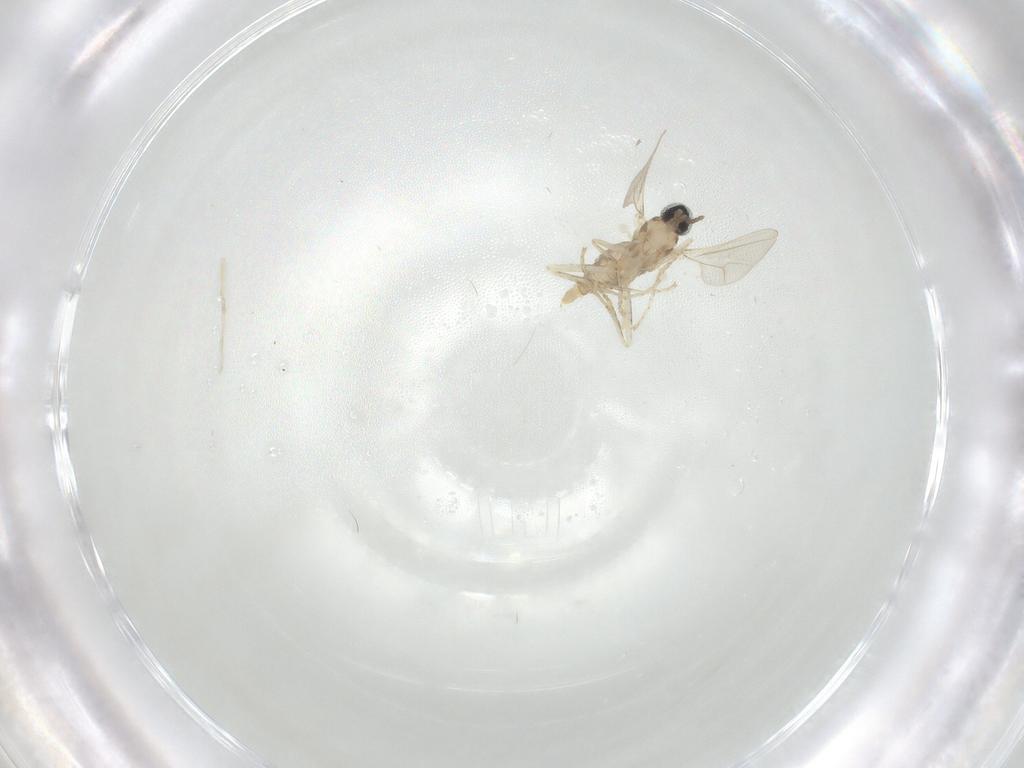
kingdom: Animalia
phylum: Arthropoda
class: Insecta
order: Diptera
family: Cecidomyiidae
